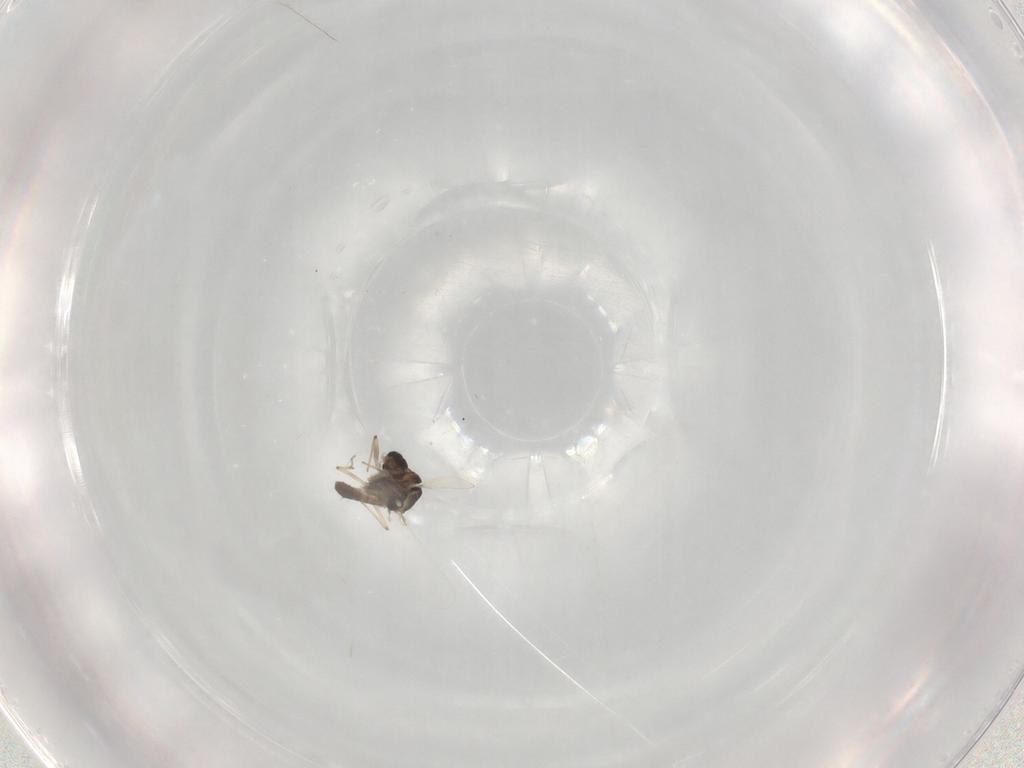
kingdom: Animalia
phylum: Arthropoda
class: Insecta
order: Diptera
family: Chironomidae
